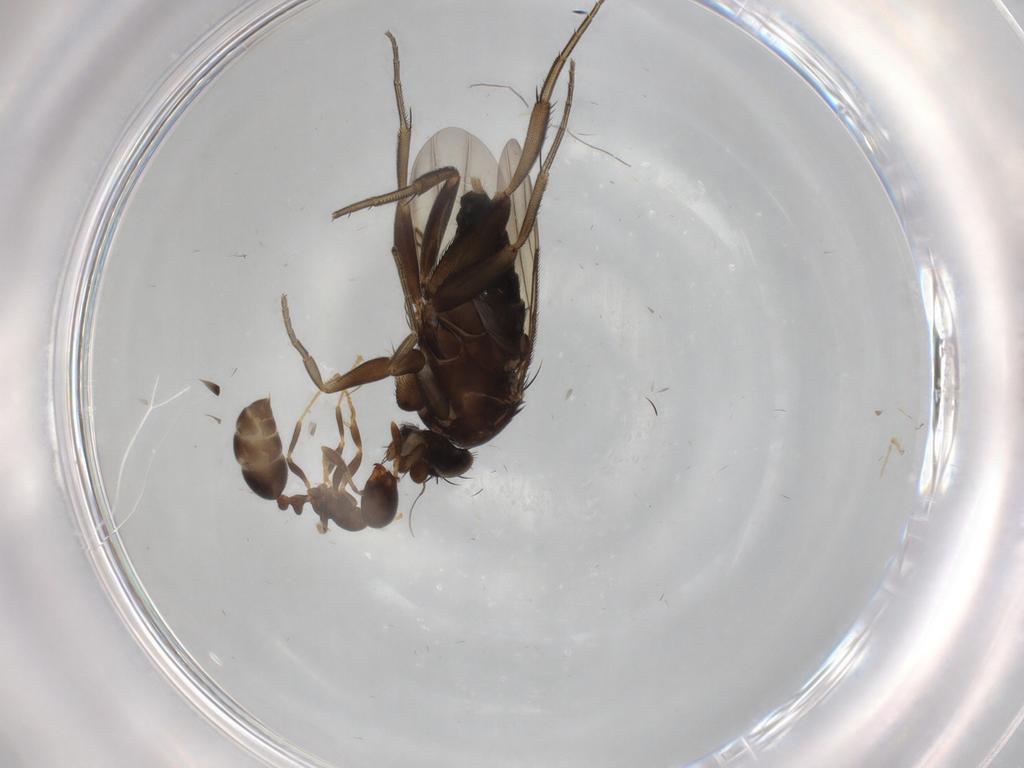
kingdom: Animalia
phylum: Arthropoda
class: Insecta
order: Diptera
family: Phoridae
